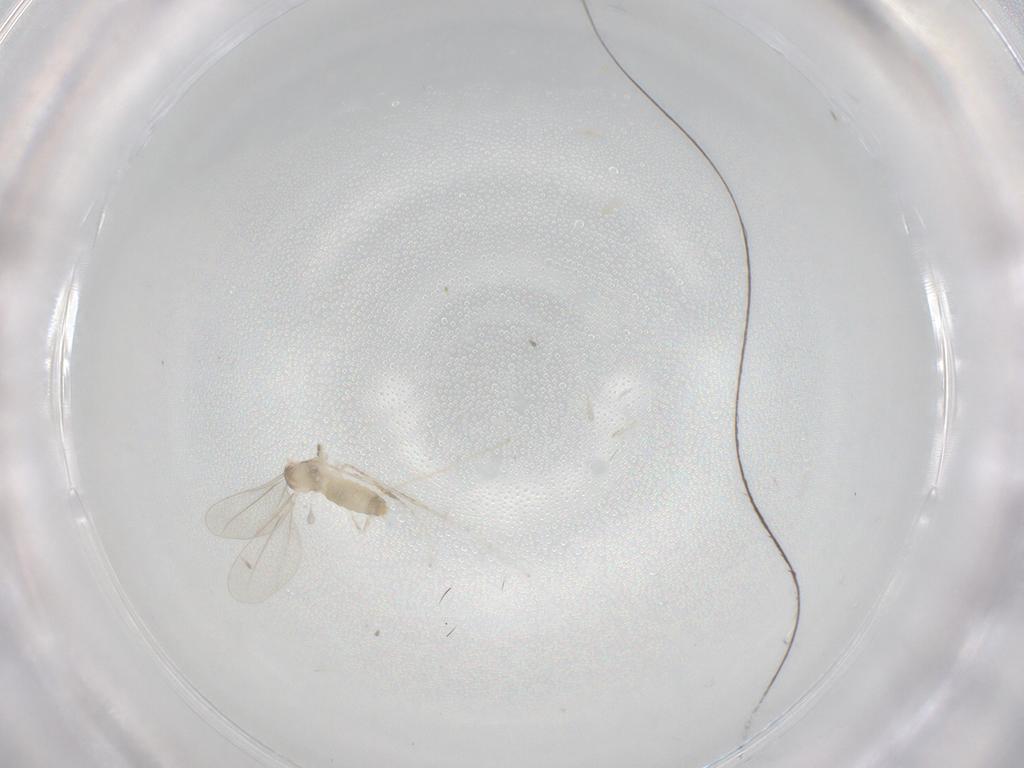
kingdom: Animalia
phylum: Arthropoda
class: Insecta
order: Diptera
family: Cecidomyiidae
